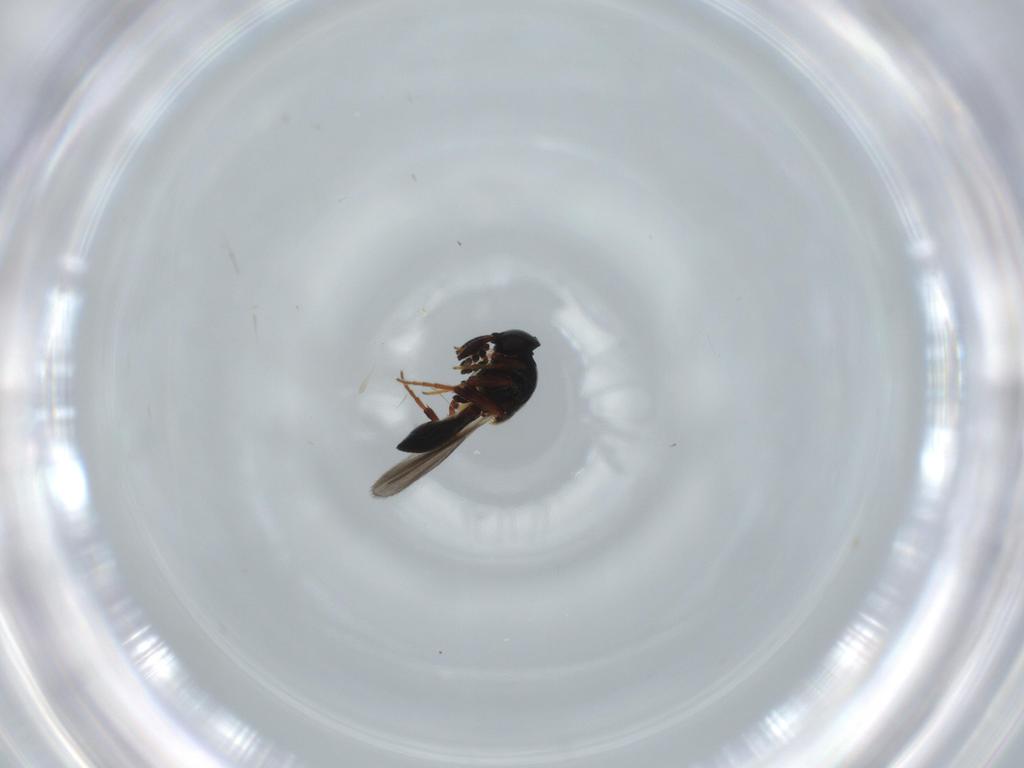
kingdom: Animalia
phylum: Arthropoda
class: Insecta
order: Hymenoptera
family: Platygastridae
